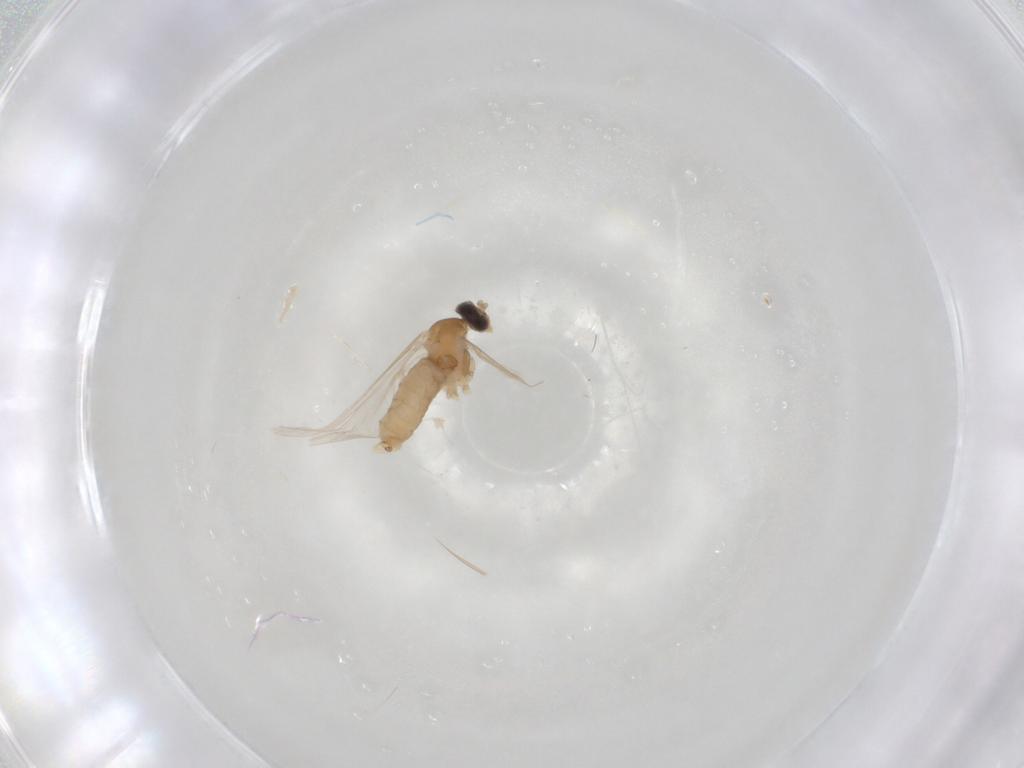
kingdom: Animalia
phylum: Arthropoda
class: Insecta
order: Diptera
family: Cecidomyiidae
